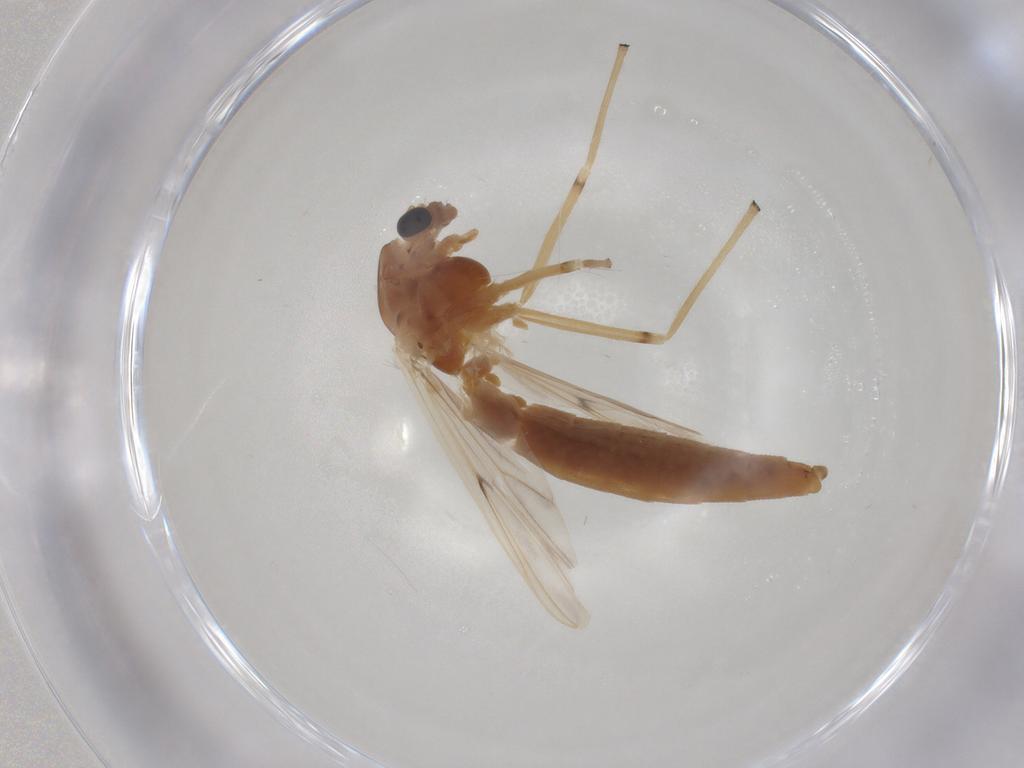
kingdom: Animalia
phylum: Arthropoda
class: Insecta
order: Diptera
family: Chironomidae
